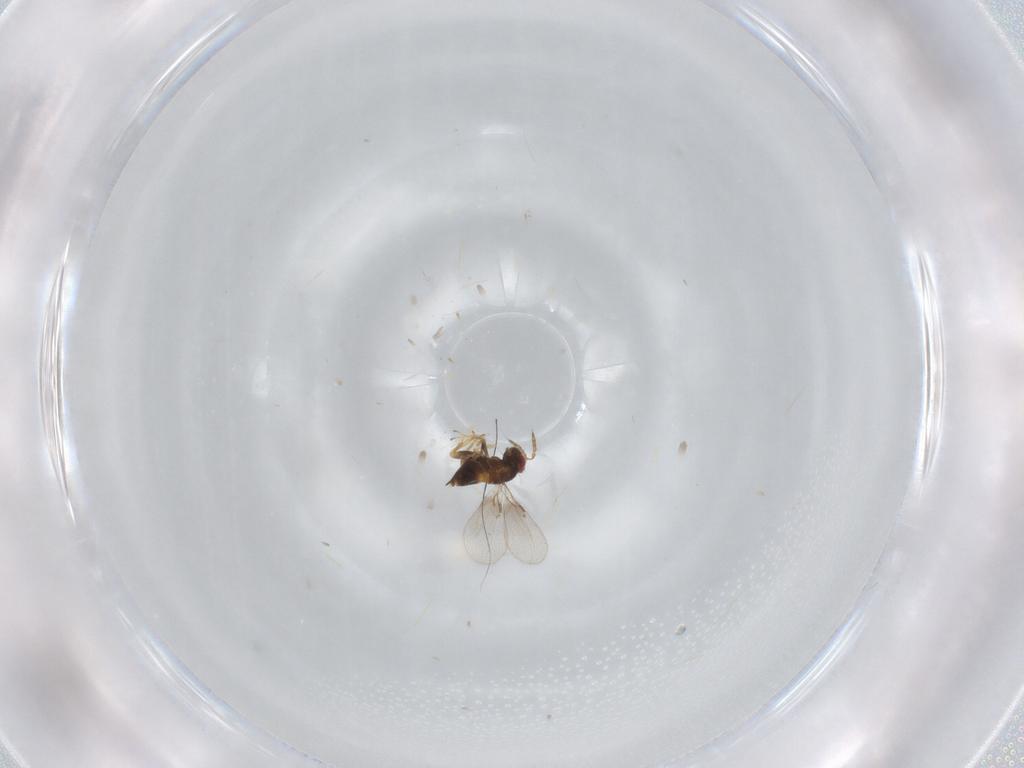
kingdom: Animalia
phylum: Arthropoda
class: Insecta
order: Hymenoptera
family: Trichogrammatidae
